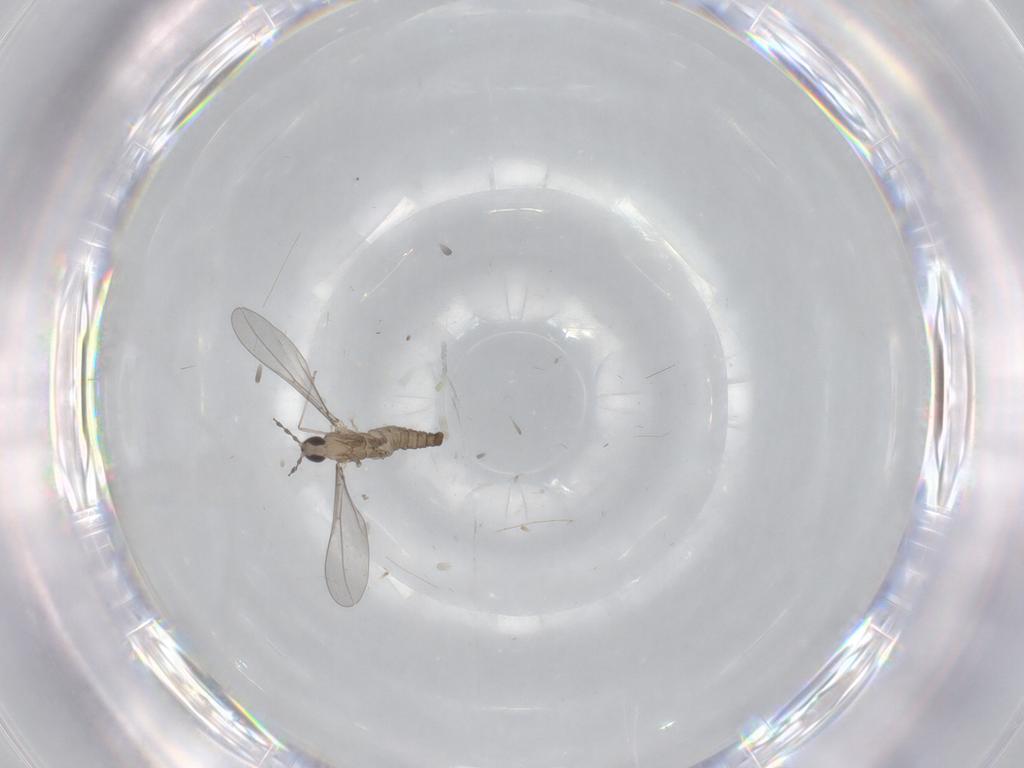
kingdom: Animalia
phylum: Arthropoda
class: Insecta
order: Diptera
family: Cecidomyiidae
